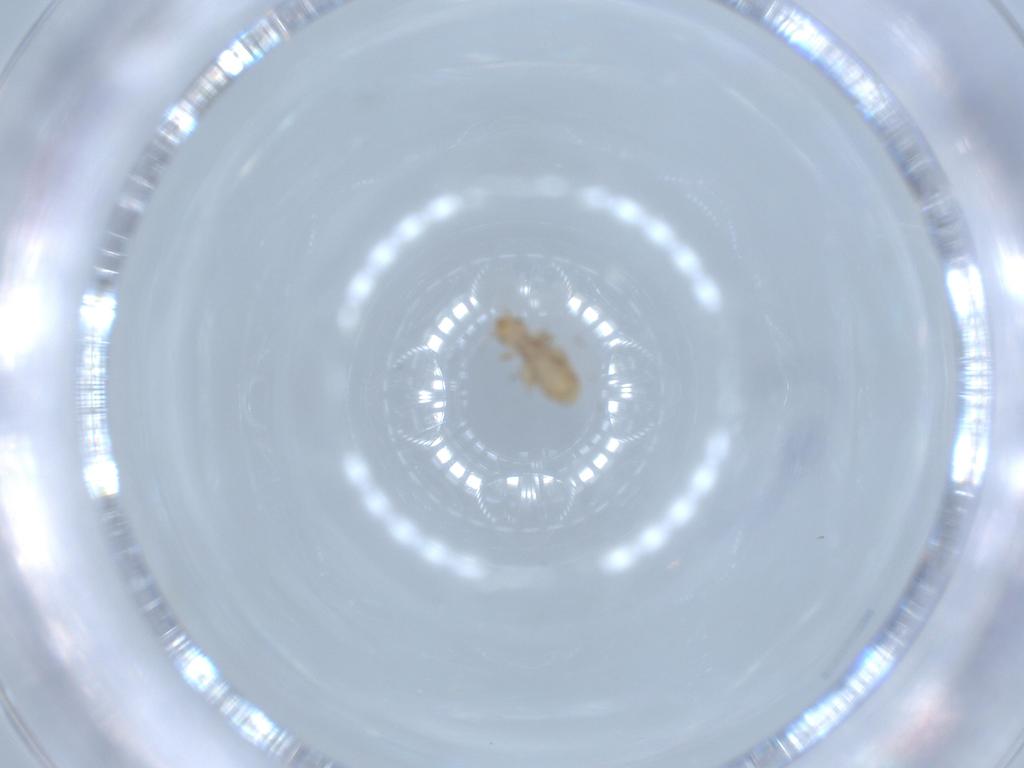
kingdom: Animalia
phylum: Arthropoda
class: Insecta
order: Psocodea
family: Liposcelididae
